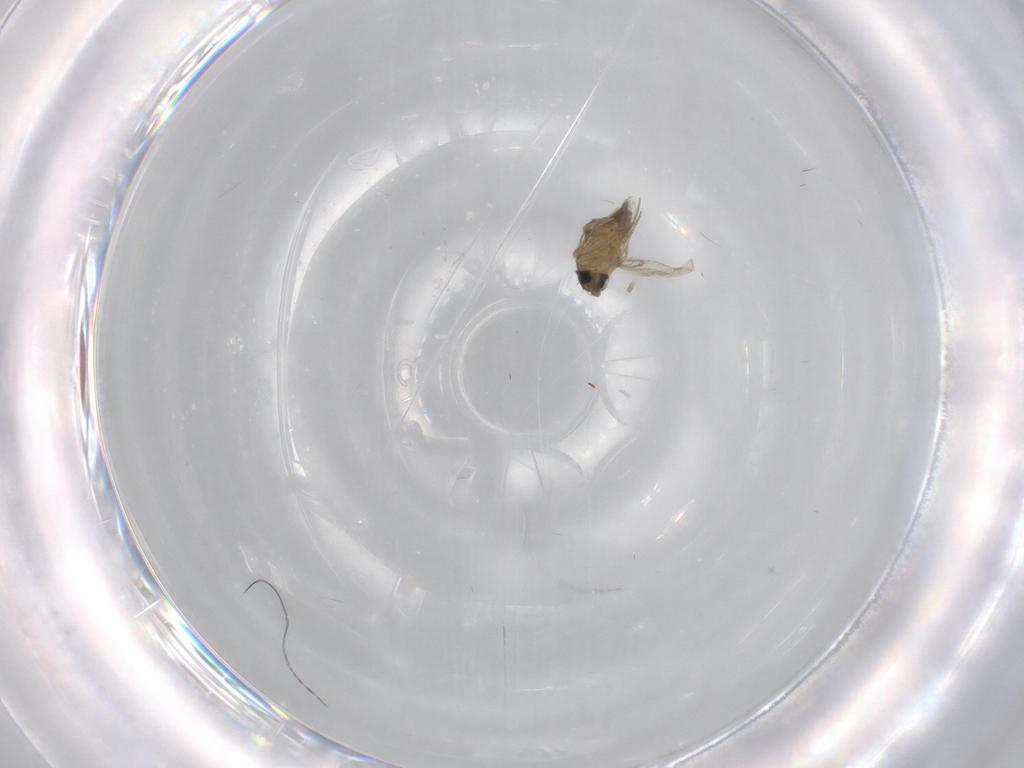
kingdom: Animalia
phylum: Arthropoda
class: Insecta
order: Diptera
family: Phoridae
